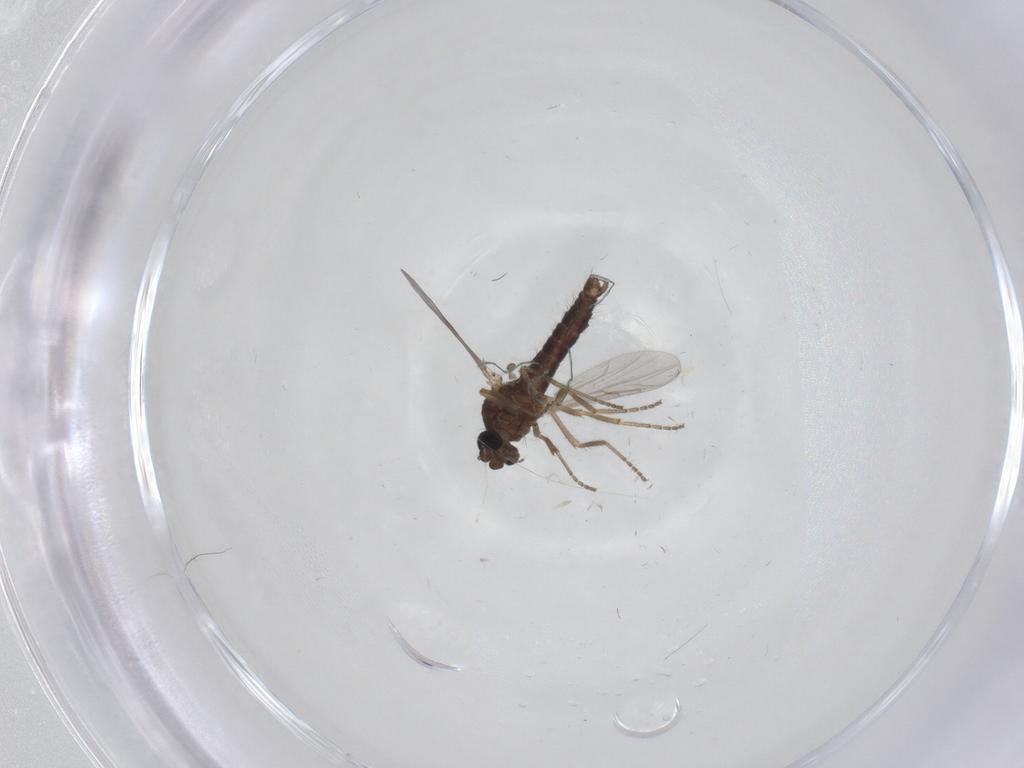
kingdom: Animalia
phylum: Arthropoda
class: Insecta
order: Diptera
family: Ceratopogonidae
